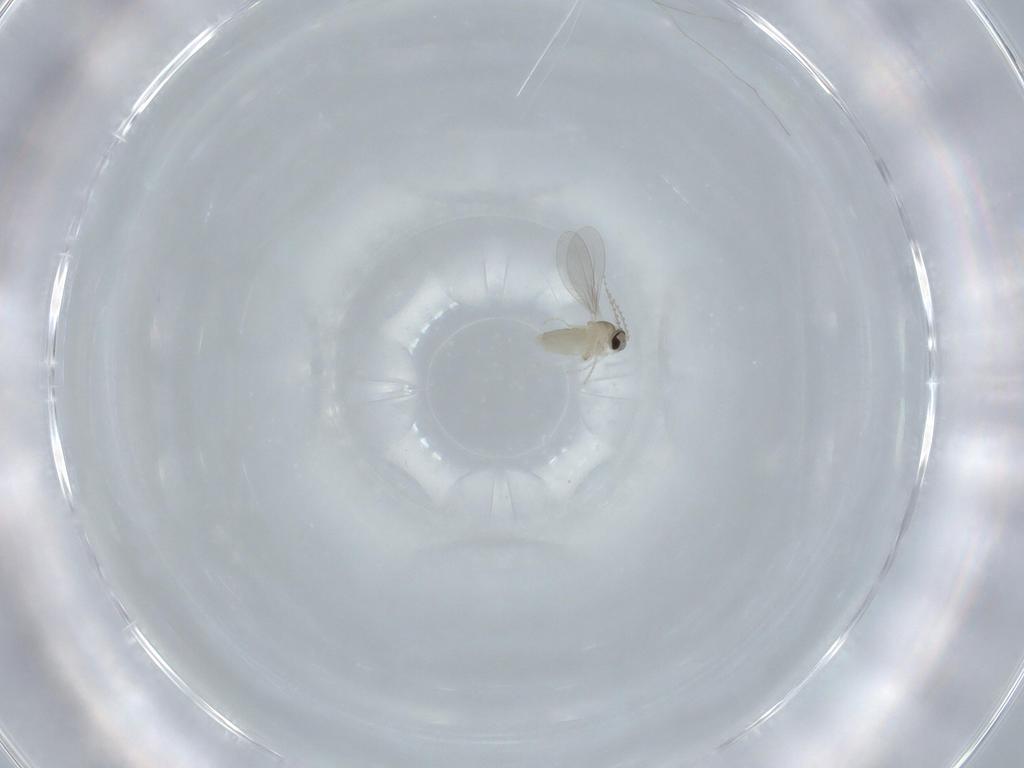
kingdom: Animalia
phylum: Arthropoda
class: Insecta
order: Diptera
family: Cecidomyiidae
